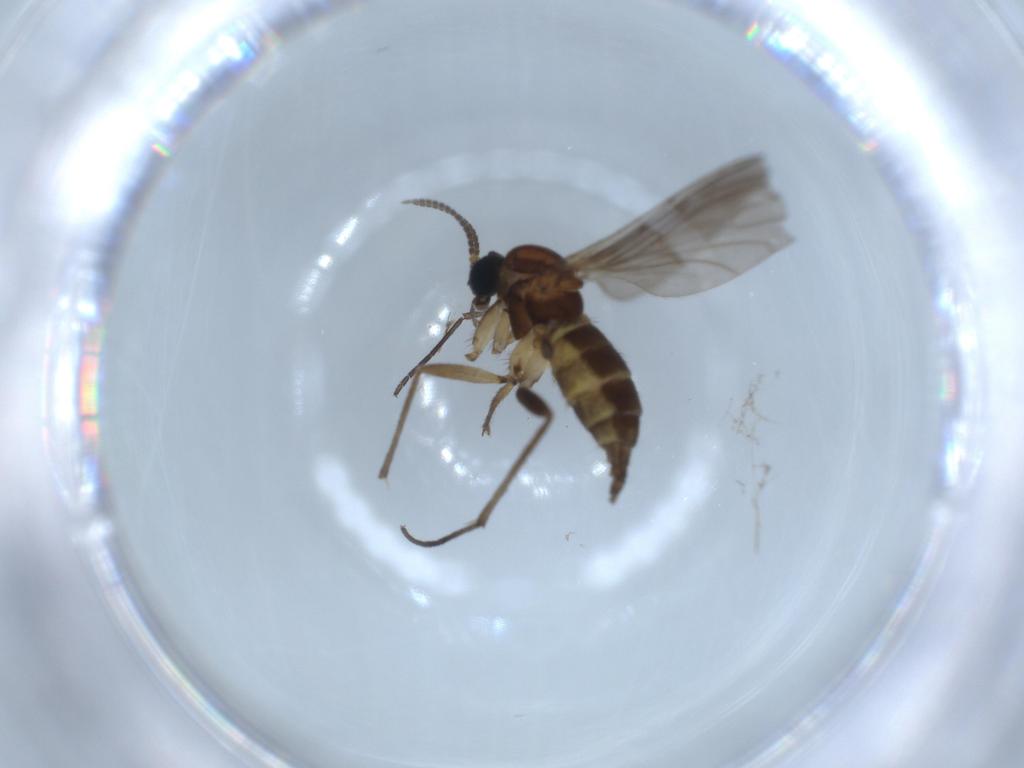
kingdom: Animalia
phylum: Arthropoda
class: Insecta
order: Diptera
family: Sciaridae
